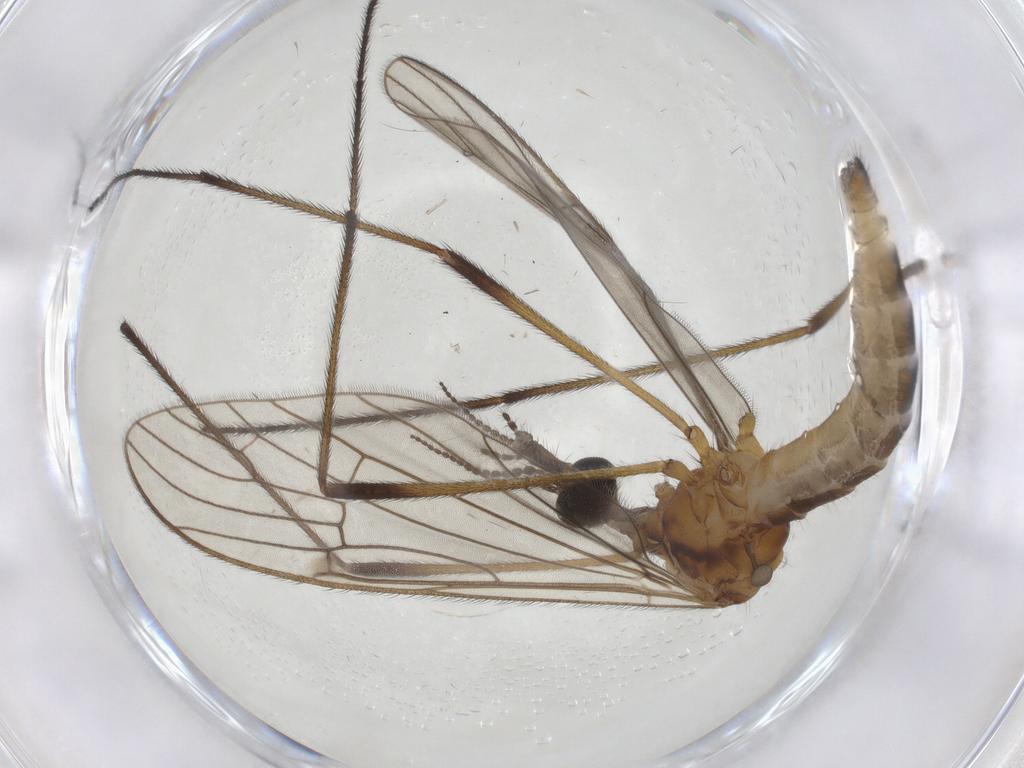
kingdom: Animalia
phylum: Arthropoda
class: Insecta
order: Diptera
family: Limoniidae
